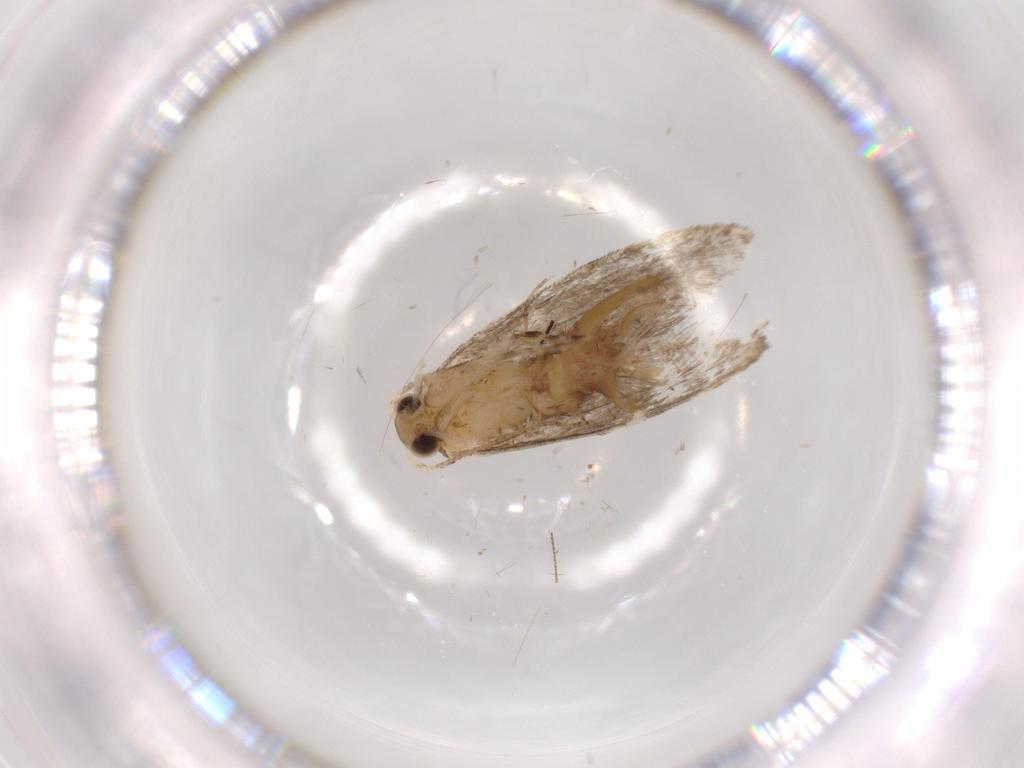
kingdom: Animalia
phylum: Arthropoda
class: Insecta
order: Lepidoptera
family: Tineidae
